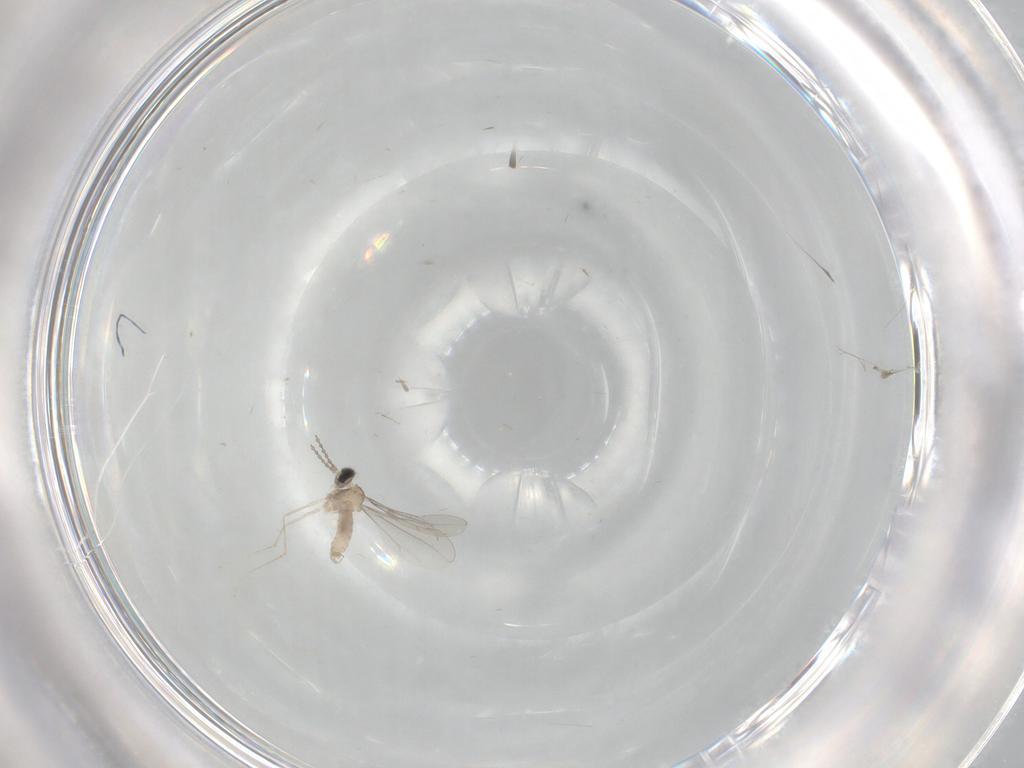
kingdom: Animalia
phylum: Arthropoda
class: Insecta
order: Diptera
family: Cecidomyiidae
